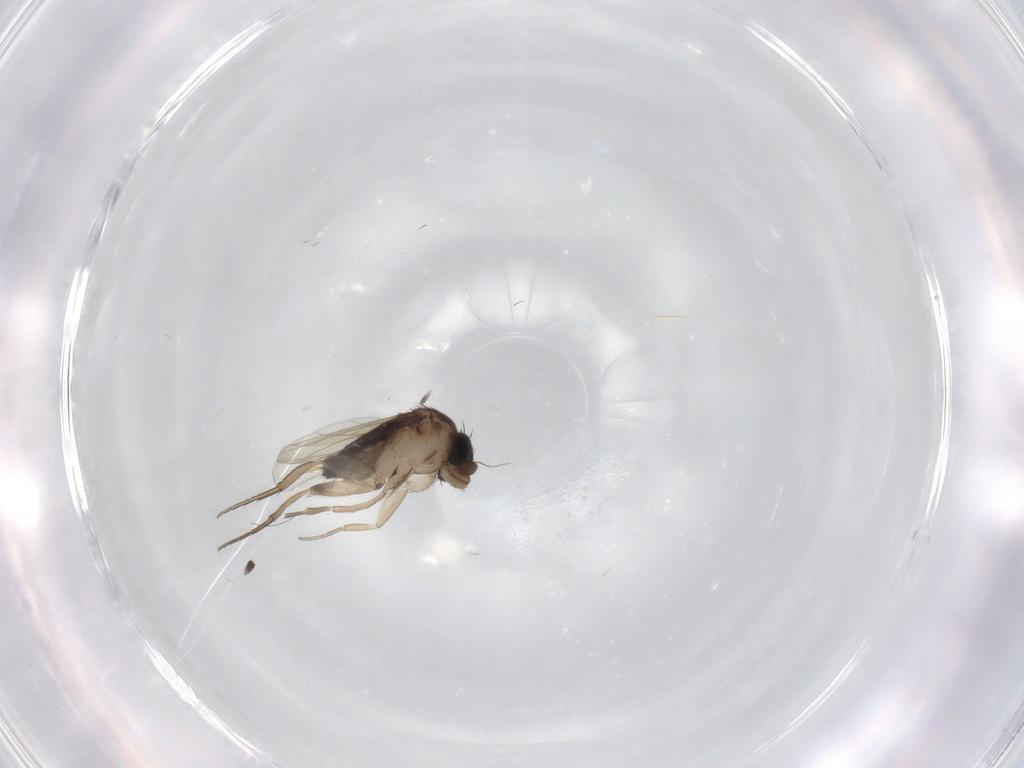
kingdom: Animalia
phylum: Arthropoda
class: Insecta
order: Diptera
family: Phoridae
